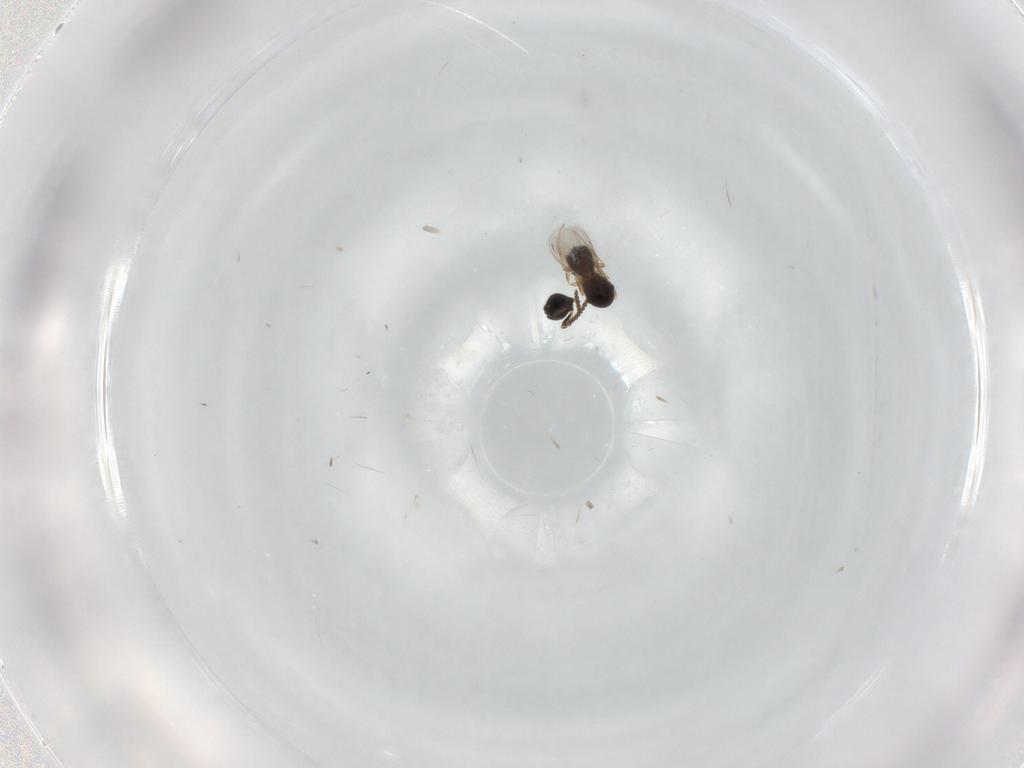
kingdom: Animalia
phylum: Arthropoda
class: Insecta
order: Hymenoptera
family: Scelionidae
